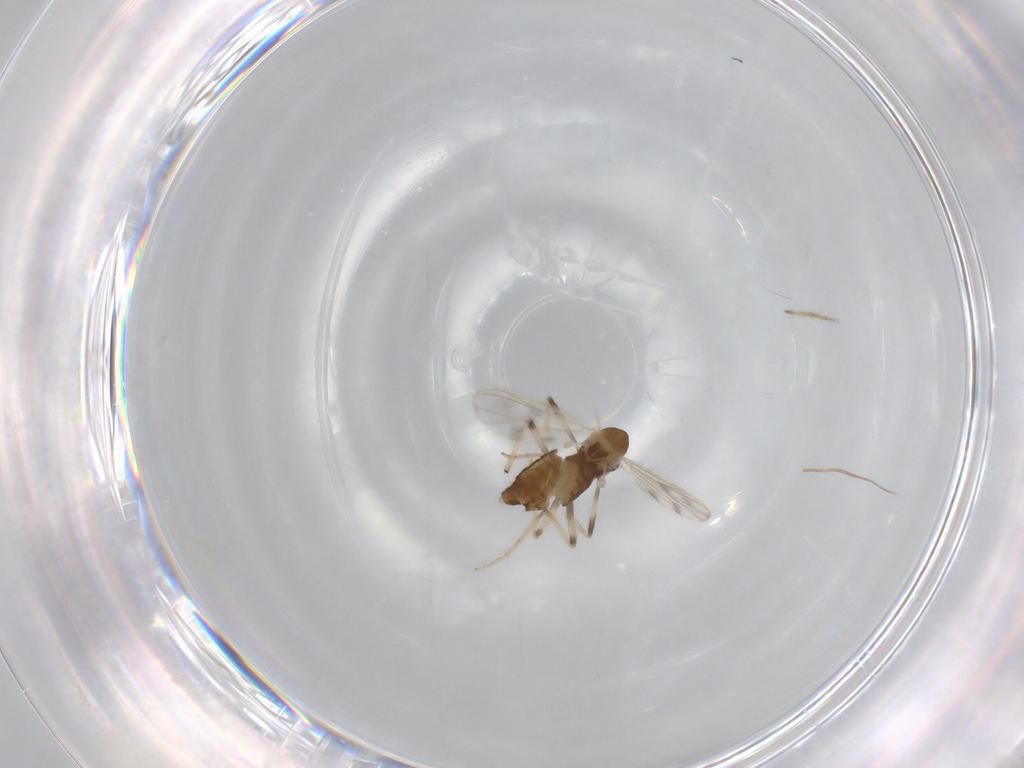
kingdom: Animalia
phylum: Arthropoda
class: Insecta
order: Diptera
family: Chironomidae
